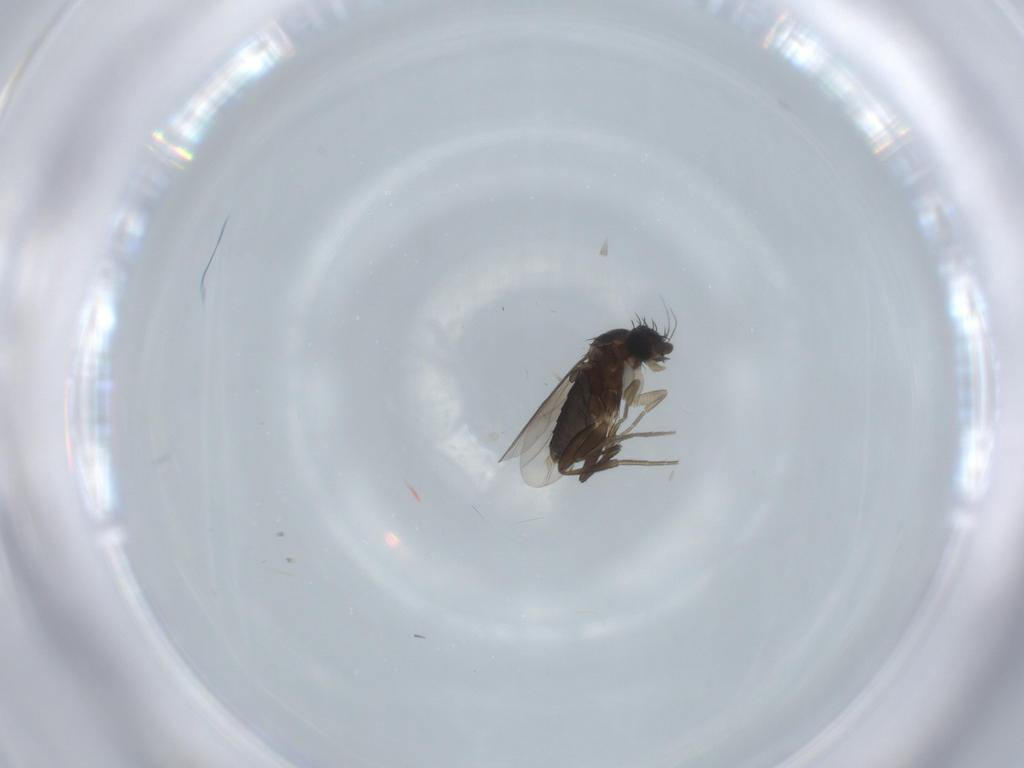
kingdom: Animalia
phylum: Arthropoda
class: Insecta
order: Diptera
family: Phoridae
